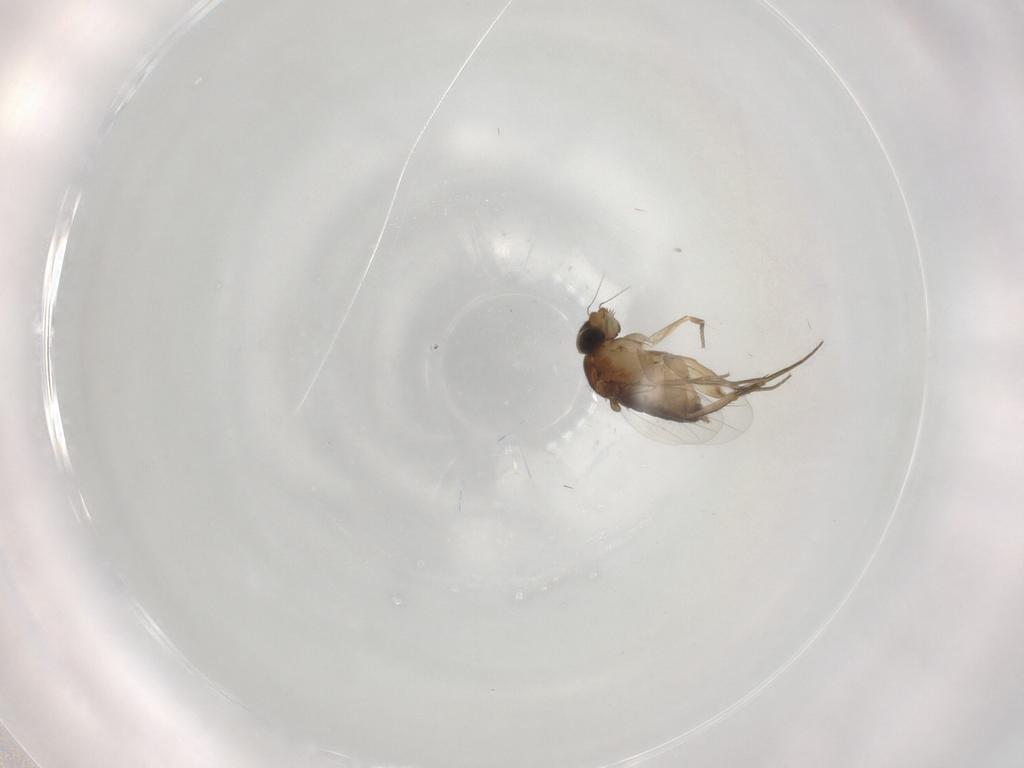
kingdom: Animalia
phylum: Arthropoda
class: Insecta
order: Diptera
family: Phoridae
